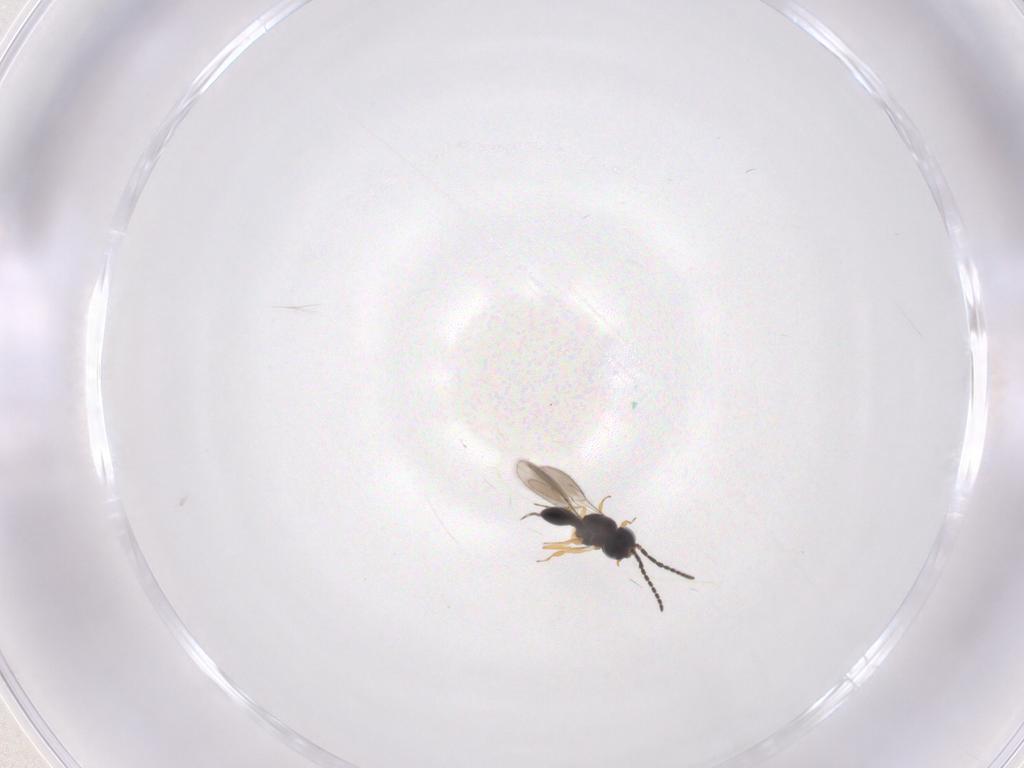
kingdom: Animalia
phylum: Arthropoda
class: Insecta
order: Hymenoptera
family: Scelionidae
